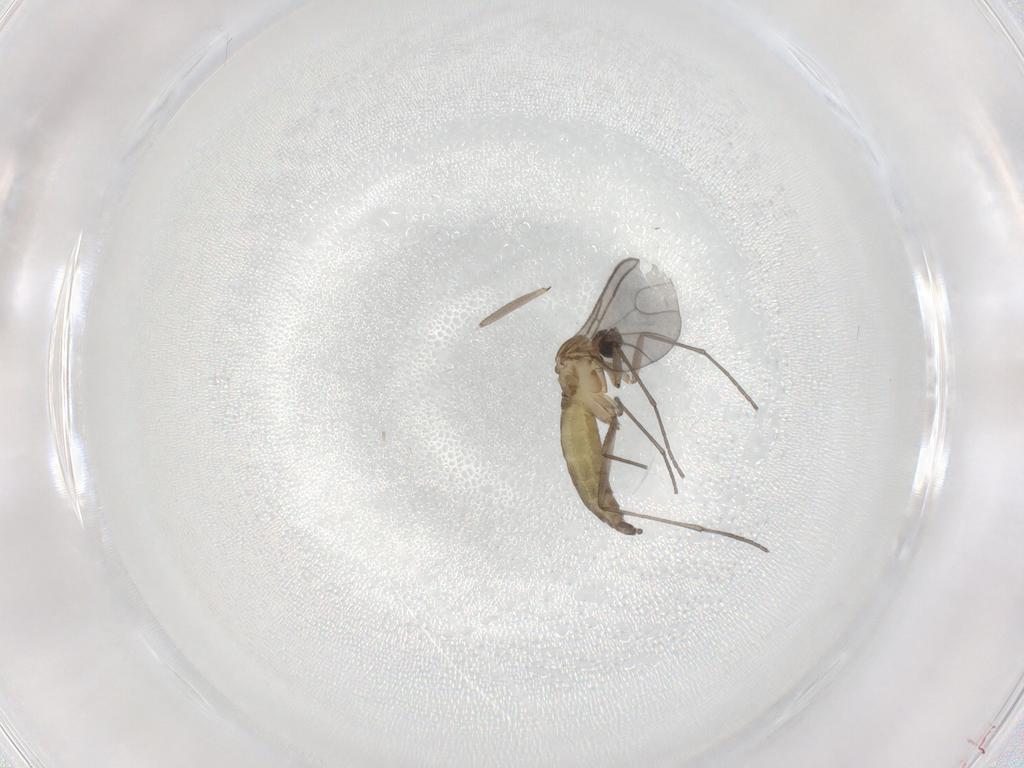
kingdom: Animalia
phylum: Arthropoda
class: Insecta
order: Diptera
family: Sciaridae
